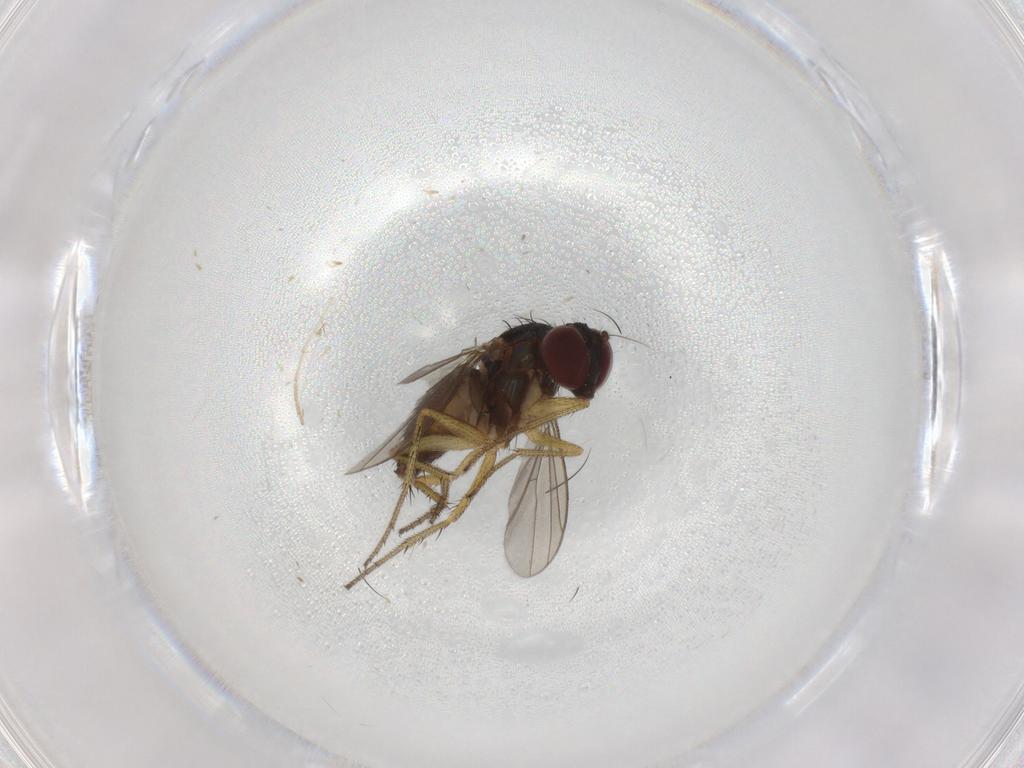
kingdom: Animalia
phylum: Arthropoda
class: Insecta
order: Diptera
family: Dolichopodidae
